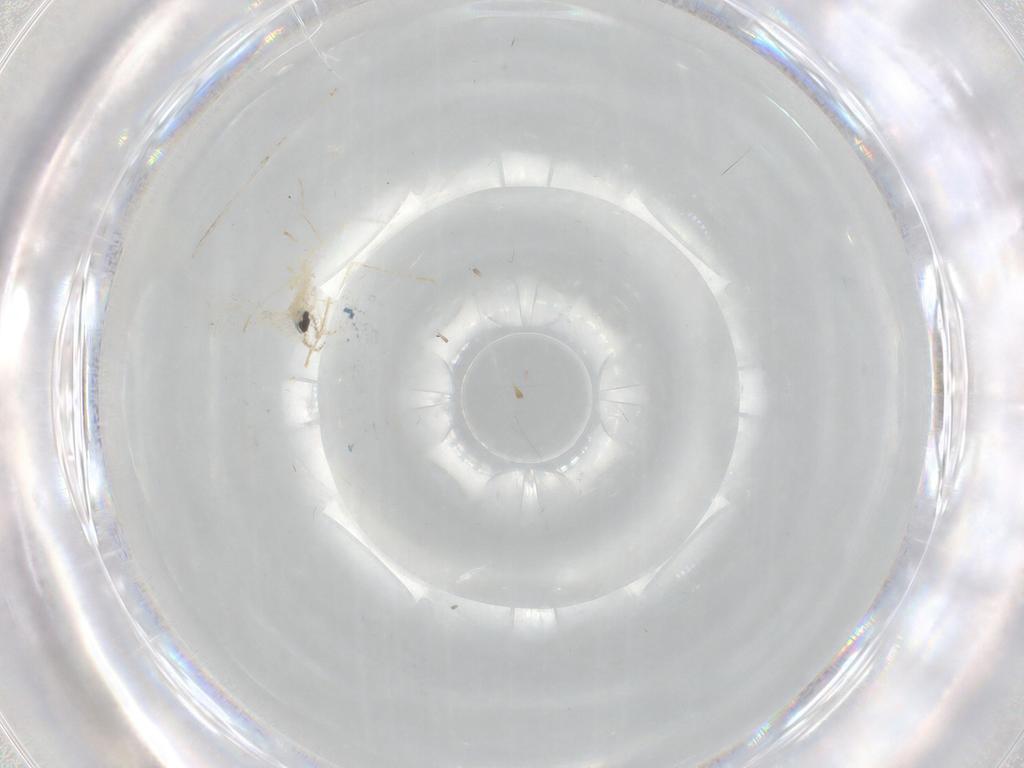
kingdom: Animalia
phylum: Arthropoda
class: Insecta
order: Diptera
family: Cecidomyiidae
